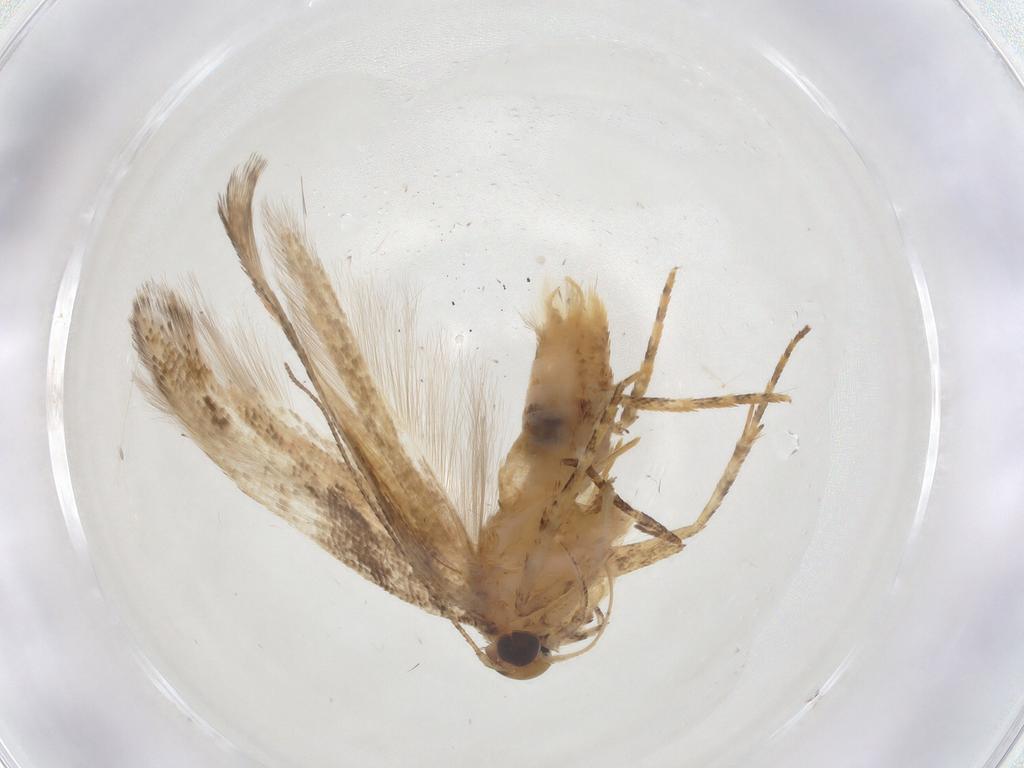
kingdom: Animalia
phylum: Arthropoda
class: Insecta
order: Lepidoptera
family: Gelechiidae
